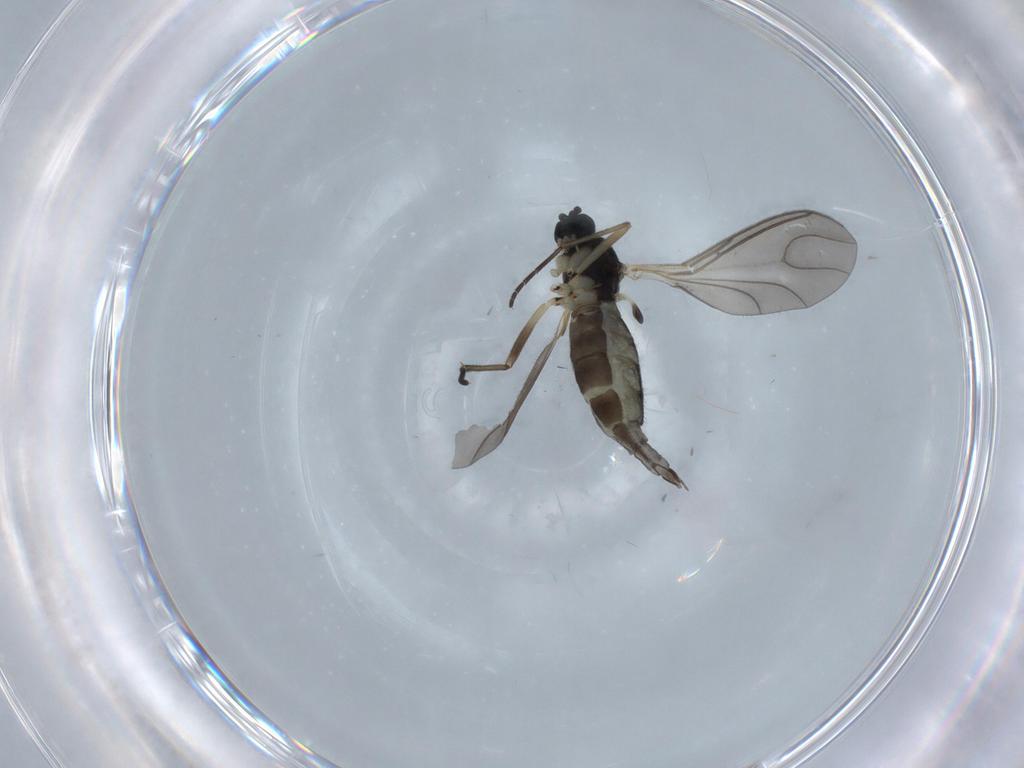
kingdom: Animalia
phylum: Arthropoda
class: Insecta
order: Diptera
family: Sciaridae
